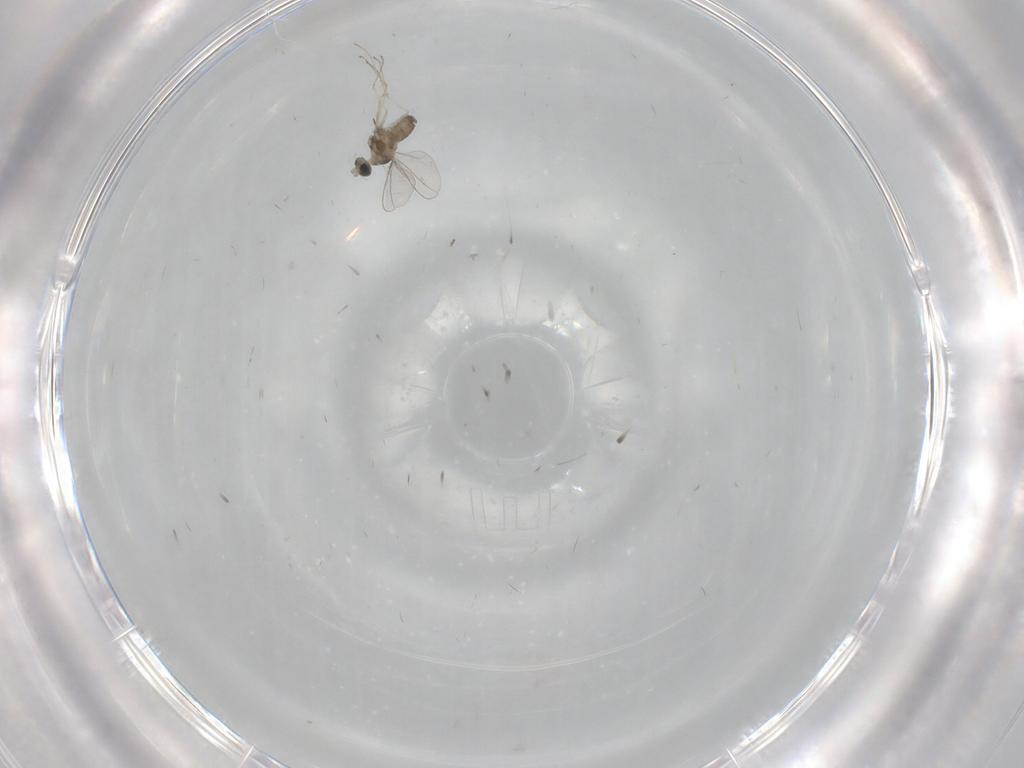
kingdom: Animalia
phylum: Arthropoda
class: Insecta
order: Diptera
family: Cecidomyiidae
